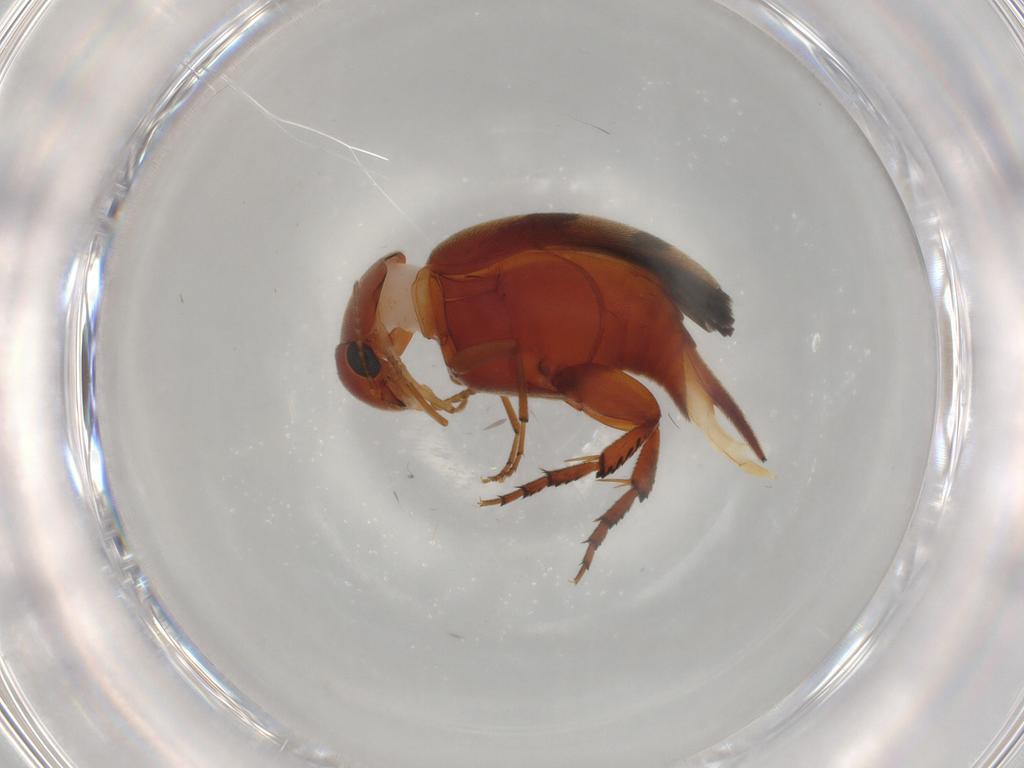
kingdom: Animalia
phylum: Arthropoda
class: Insecta
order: Coleoptera
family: Mordellidae
